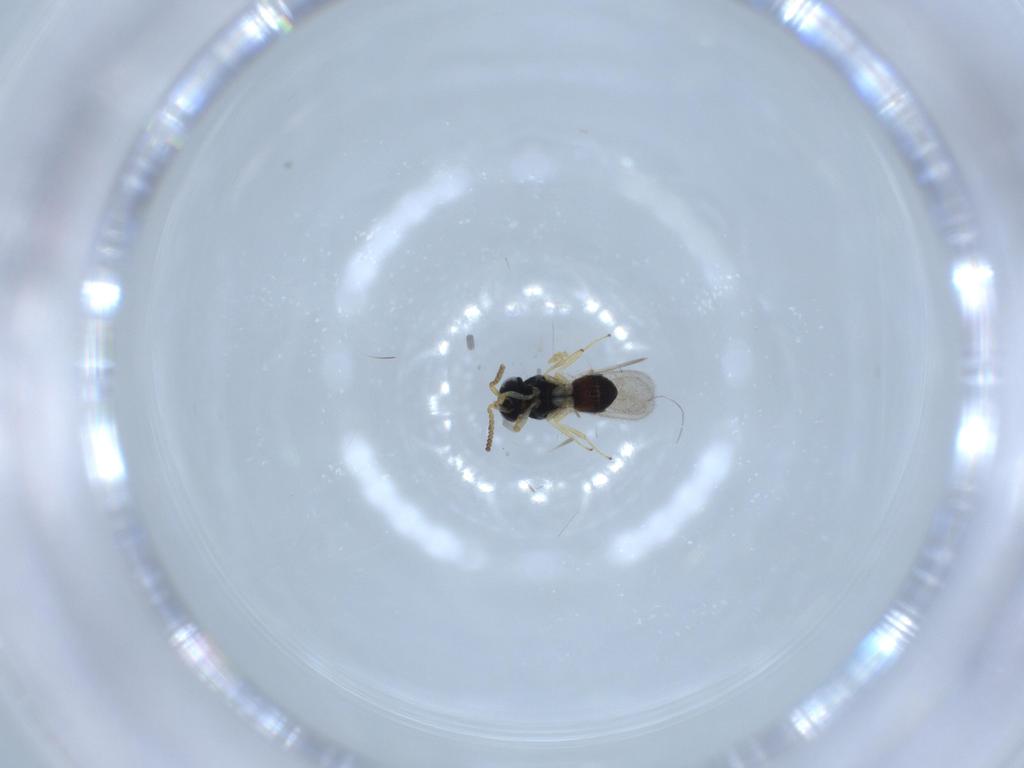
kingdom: Animalia
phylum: Arthropoda
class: Insecta
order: Hymenoptera
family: Scelionidae
